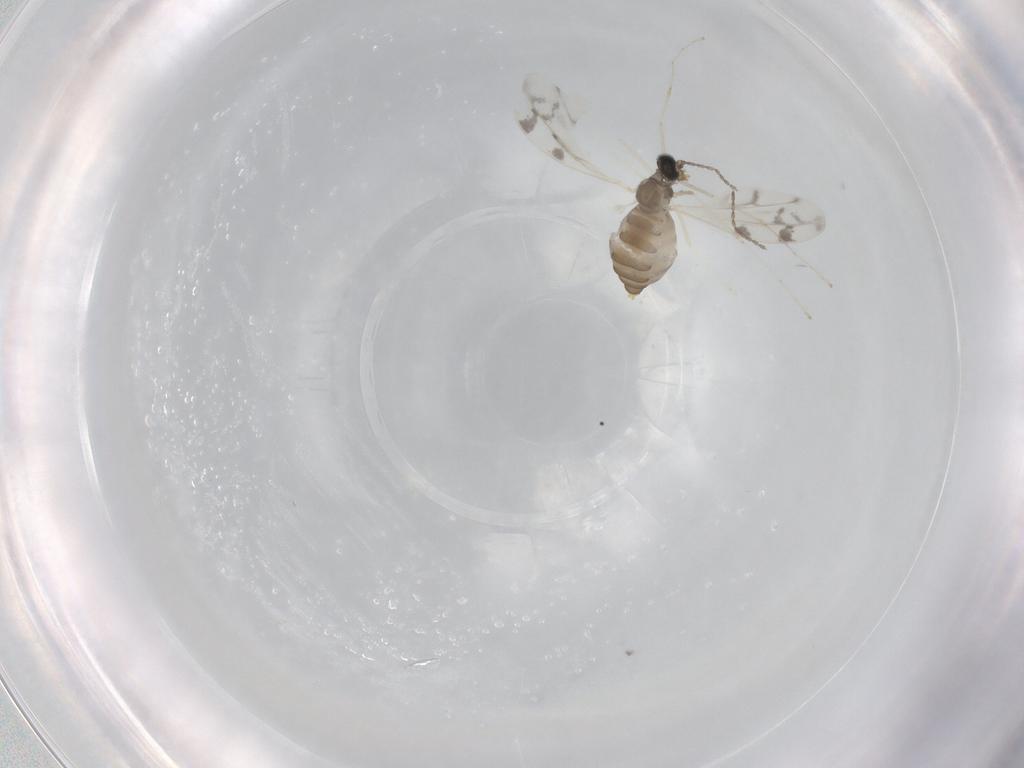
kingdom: Animalia
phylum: Arthropoda
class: Insecta
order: Diptera
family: Cecidomyiidae
